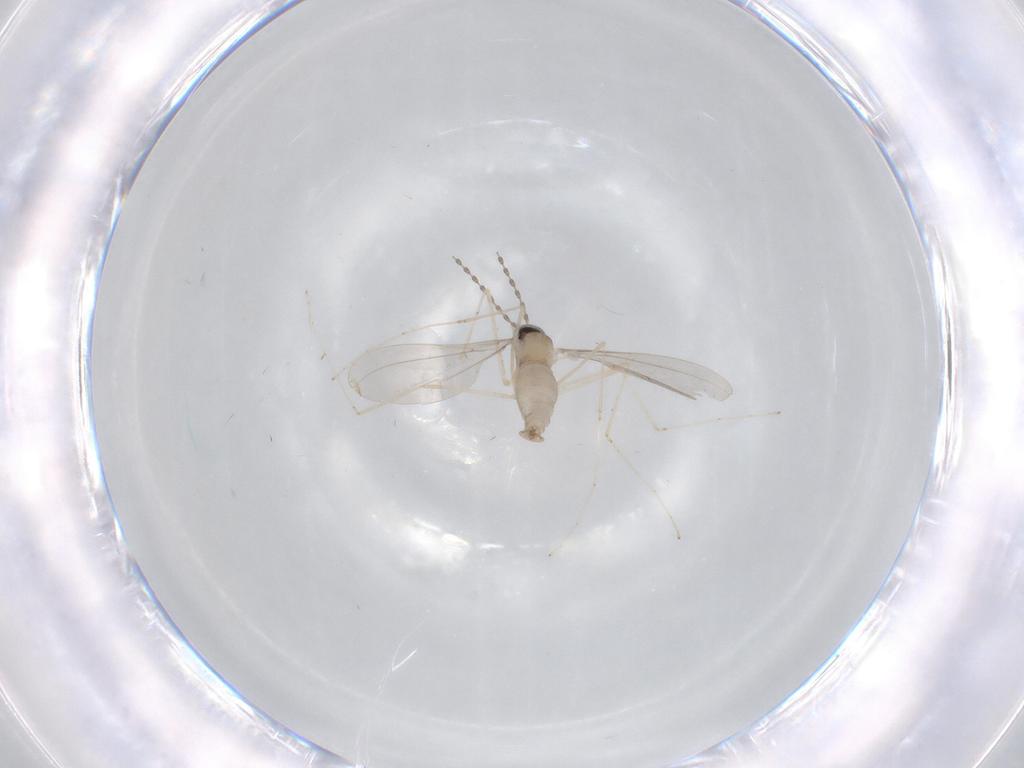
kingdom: Animalia
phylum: Arthropoda
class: Insecta
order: Diptera
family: Cecidomyiidae
